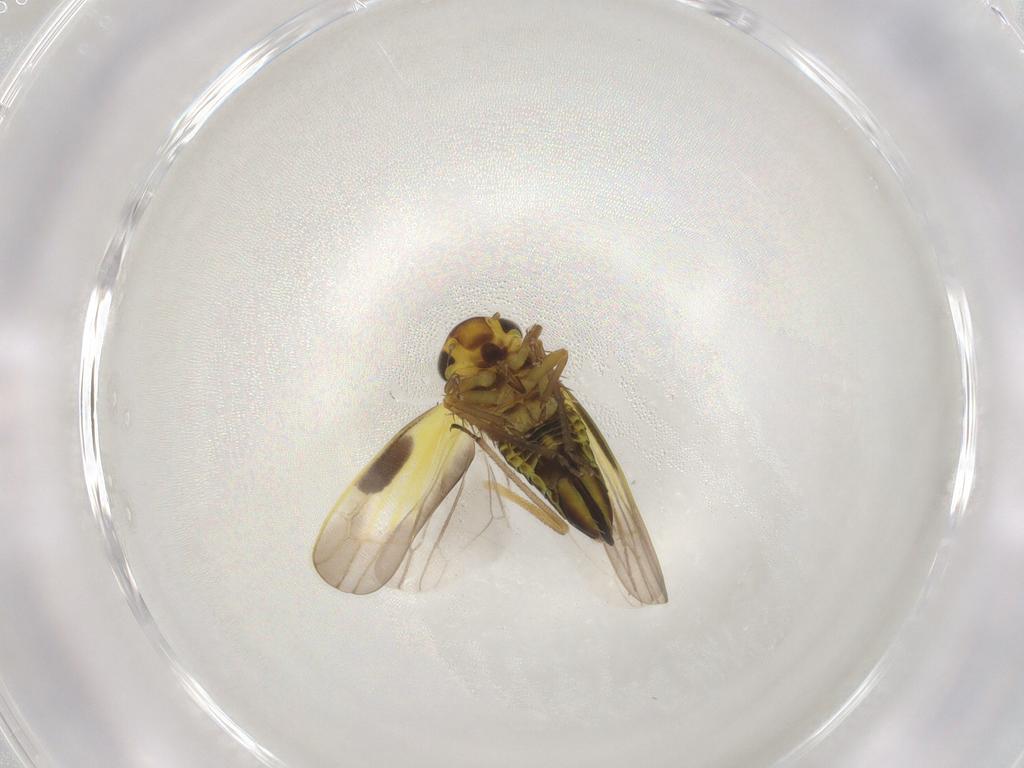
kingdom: Animalia
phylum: Arthropoda
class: Insecta
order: Hemiptera
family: Cicadellidae
